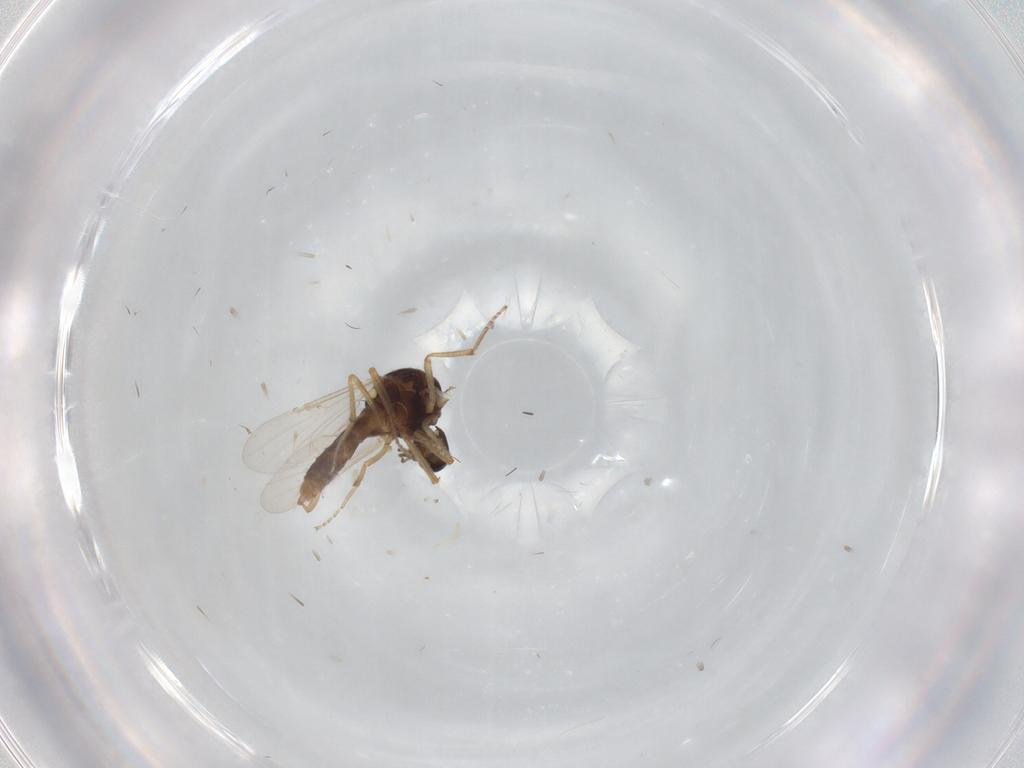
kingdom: Animalia
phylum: Arthropoda
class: Insecta
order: Diptera
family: Ceratopogonidae
